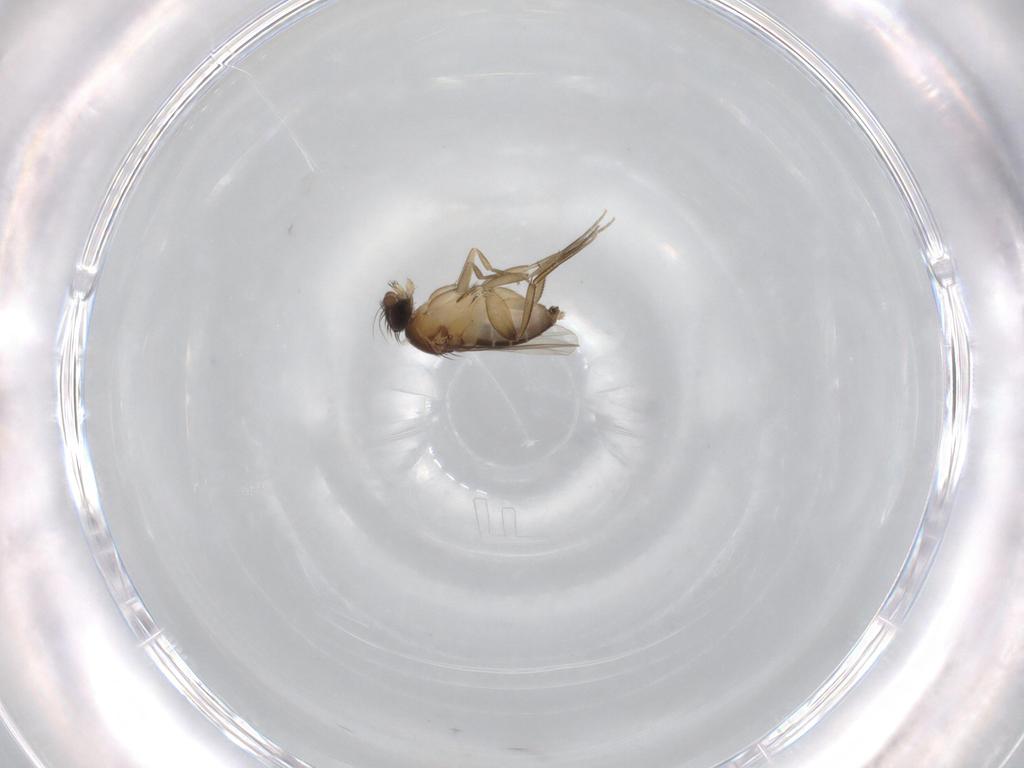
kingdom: Animalia
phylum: Arthropoda
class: Insecta
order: Diptera
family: Phoridae
